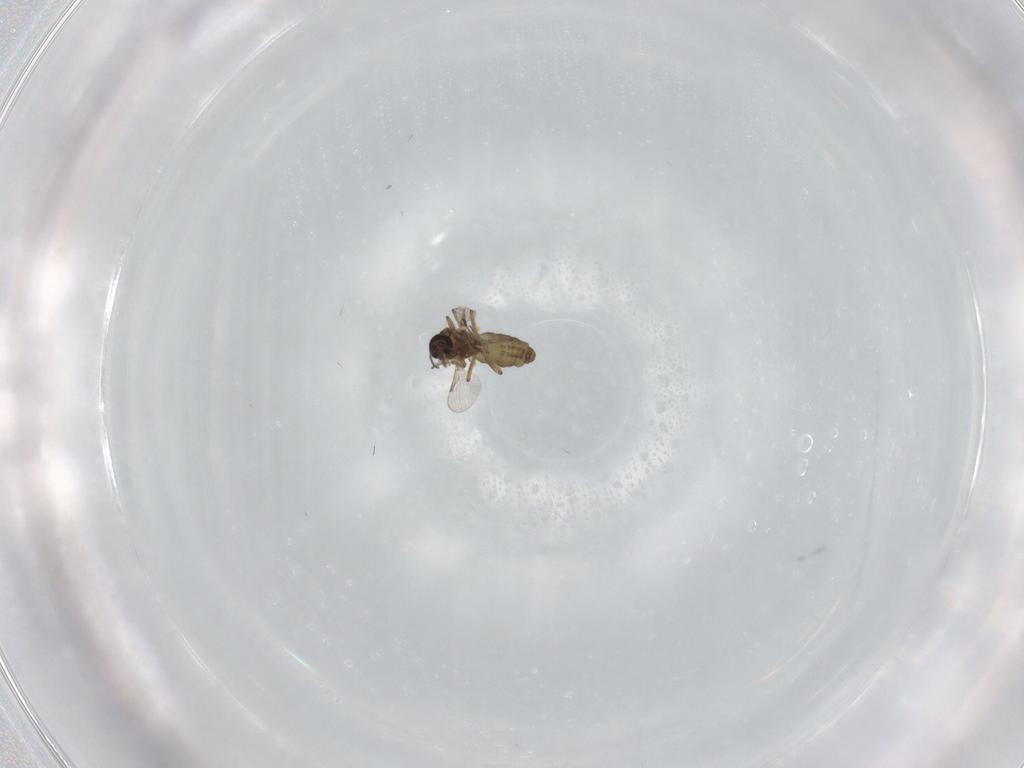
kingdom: Animalia
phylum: Arthropoda
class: Insecta
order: Diptera
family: Ceratopogonidae
